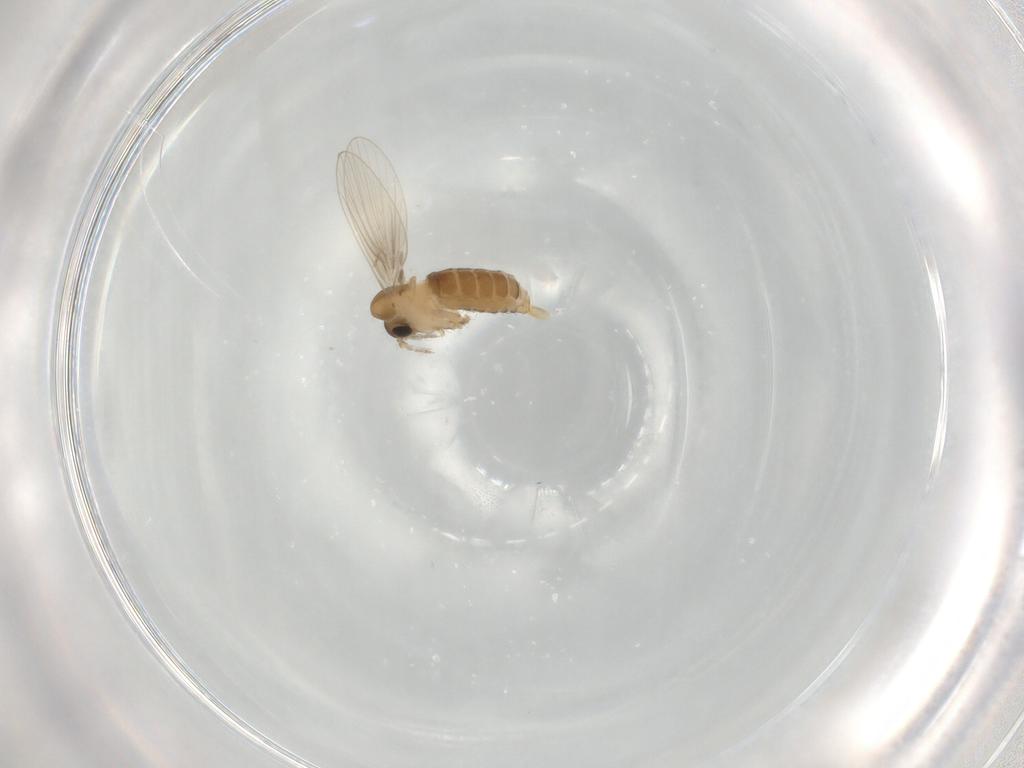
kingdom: Animalia
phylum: Arthropoda
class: Insecta
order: Diptera
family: Psychodidae
